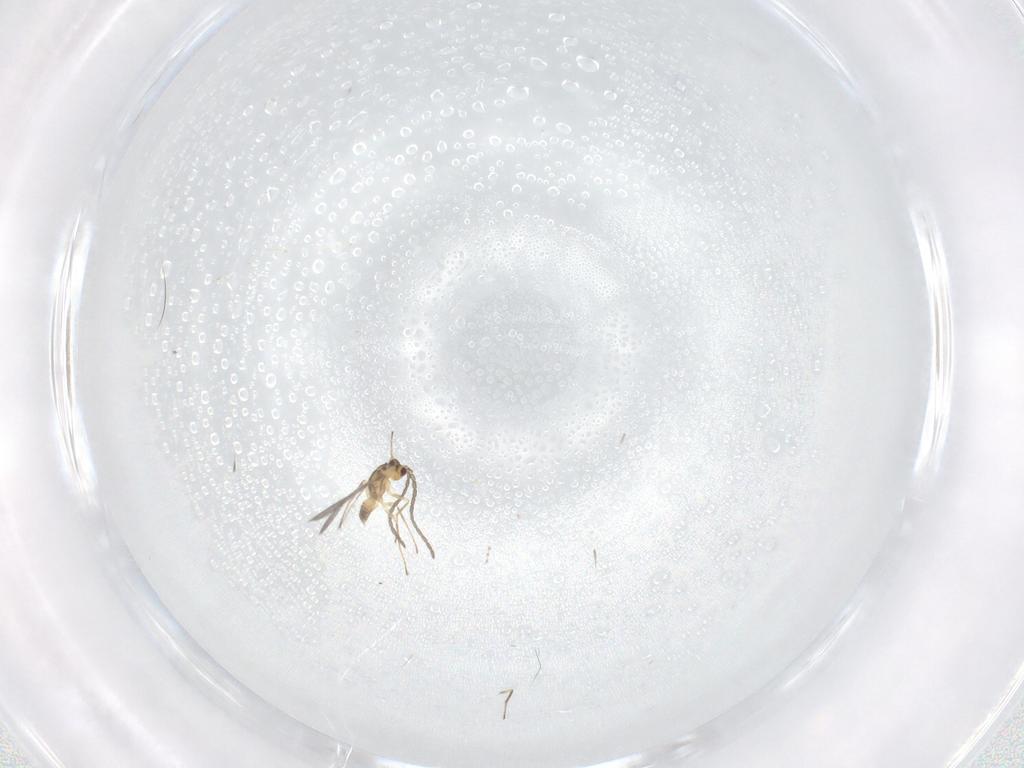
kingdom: Animalia
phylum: Arthropoda
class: Insecta
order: Hymenoptera
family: Mymaridae
